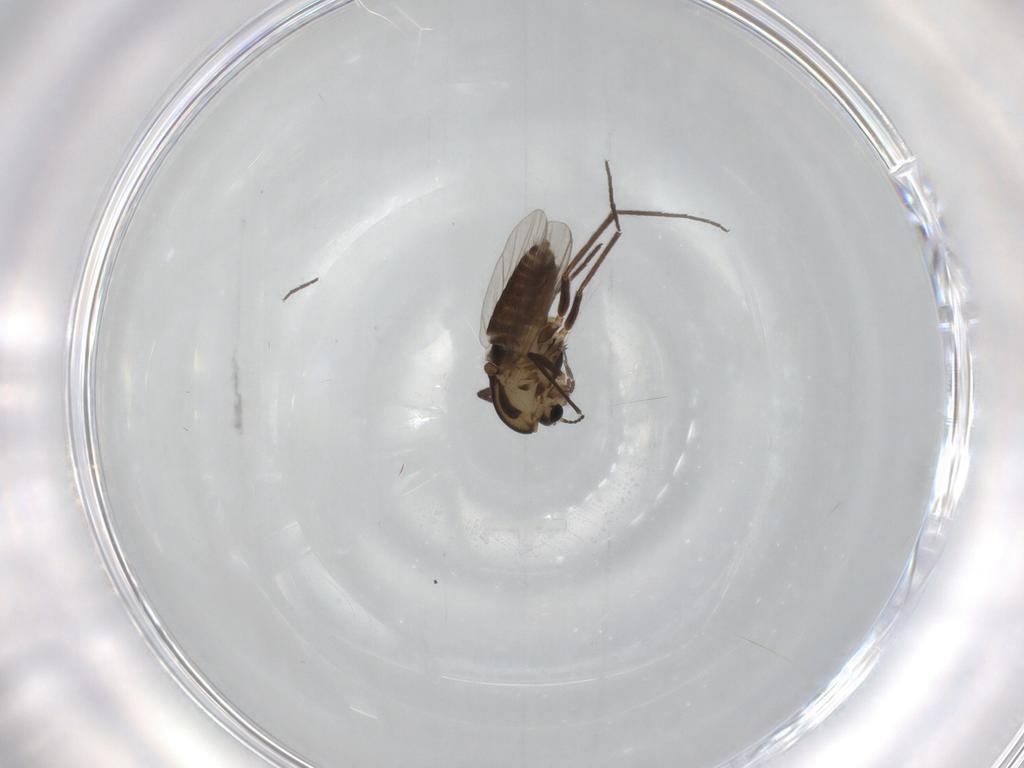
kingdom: Animalia
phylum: Arthropoda
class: Insecta
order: Diptera
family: Chironomidae
